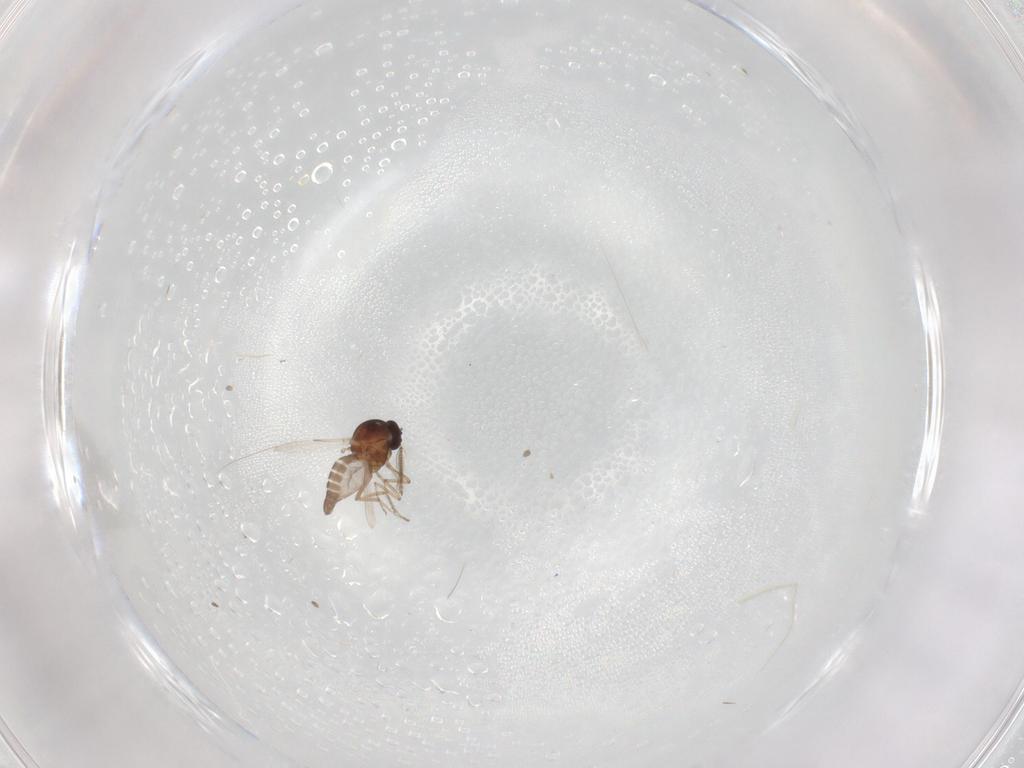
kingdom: Animalia
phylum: Arthropoda
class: Insecta
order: Diptera
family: Ceratopogonidae
